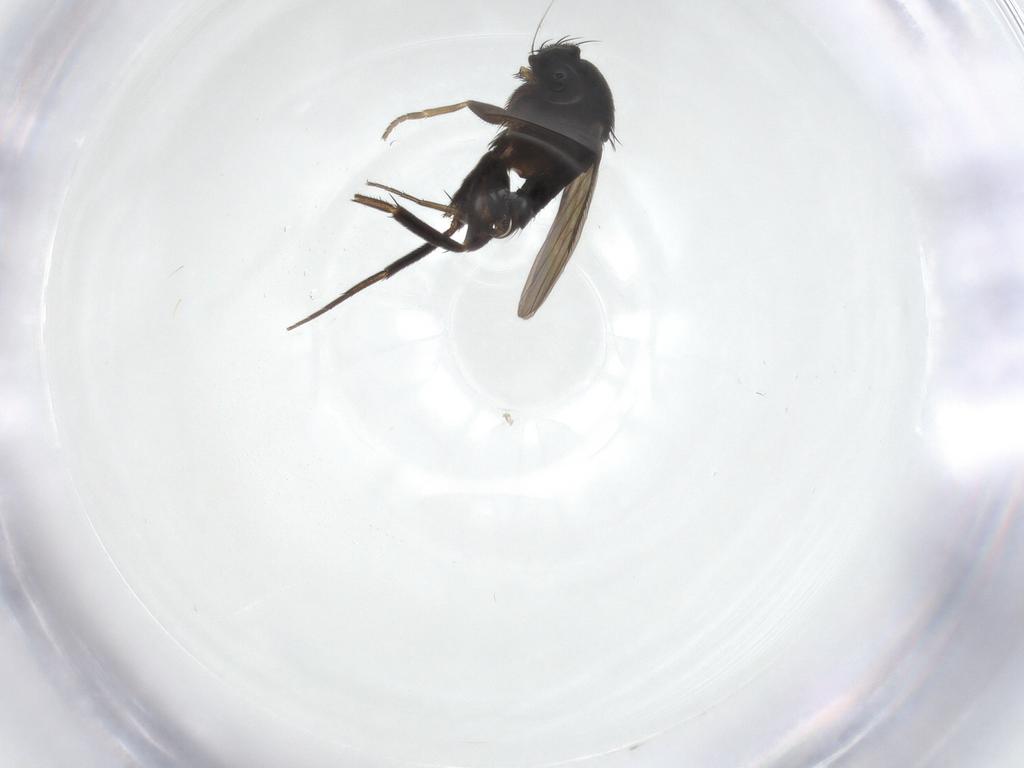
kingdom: Animalia
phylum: Arthropoda
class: Insecta
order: Diptera
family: Phoridae
